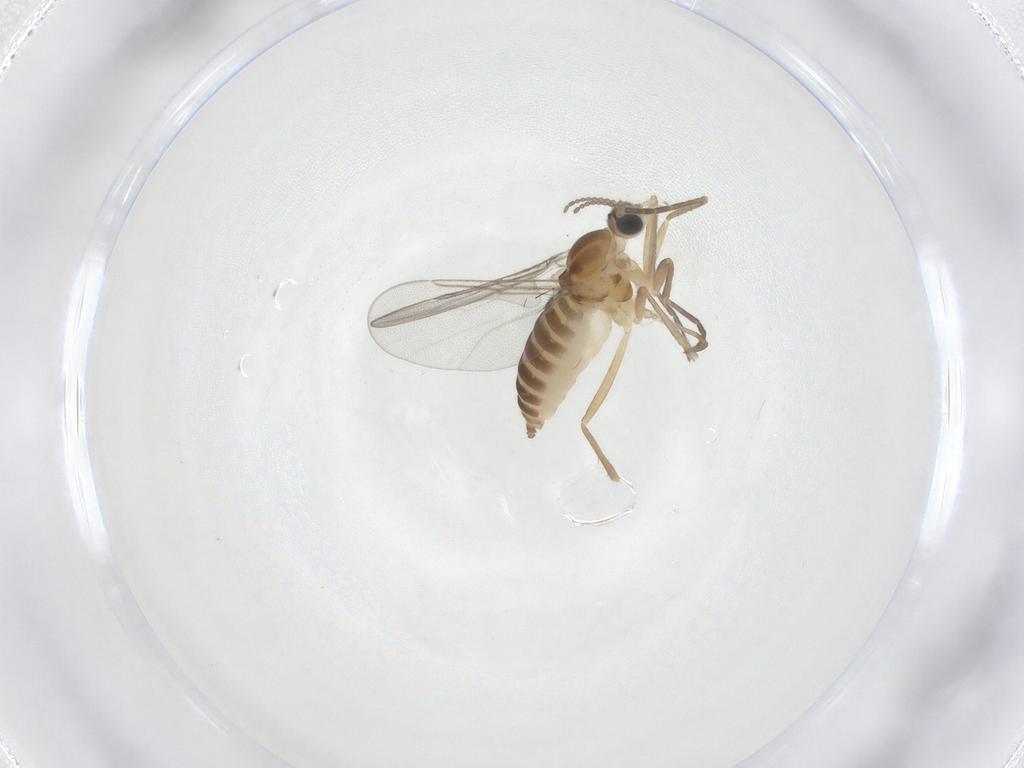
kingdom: Animalia
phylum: Arthropoda
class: Insecta
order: Diptera
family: Cecidomyiidae
